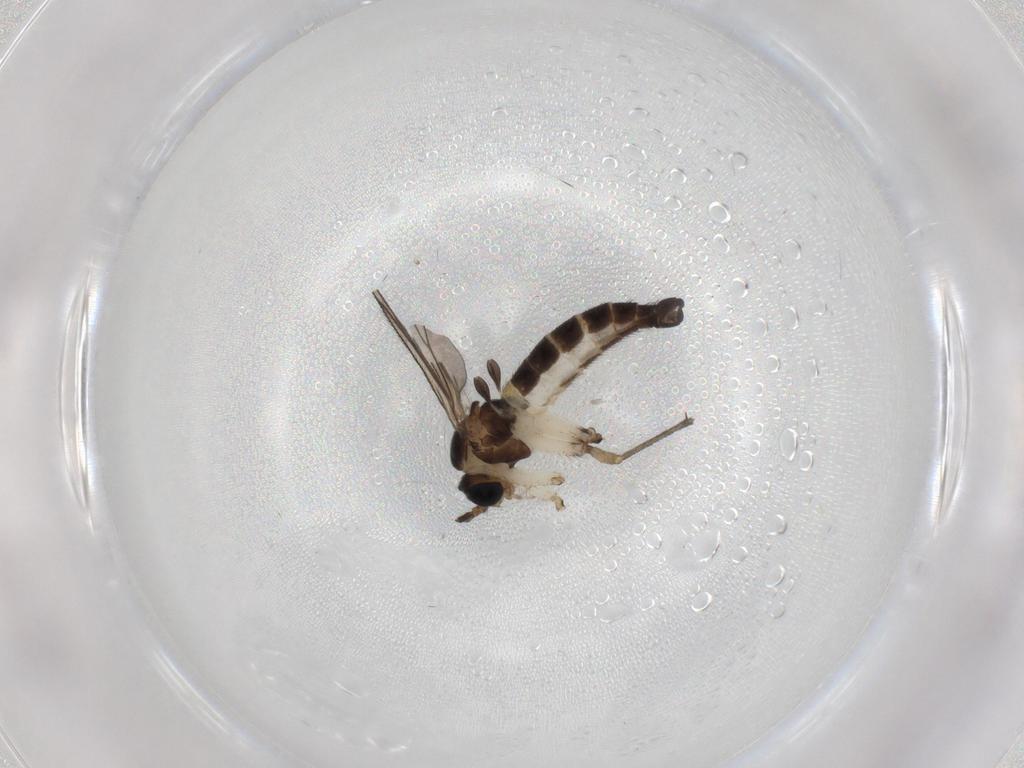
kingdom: Animalia
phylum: Arthropoda
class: Insecta
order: Diptera
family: Sciaridae
